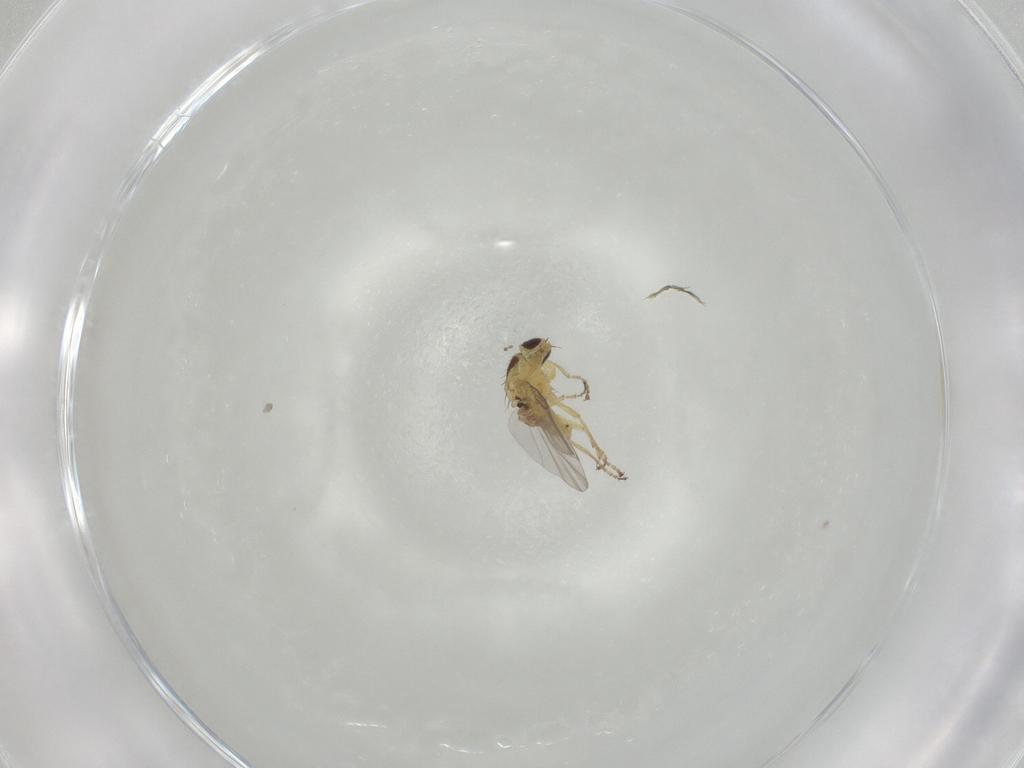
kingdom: Animalia
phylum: Arthropoda
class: Insecta
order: Diptera
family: Agromyzidae
